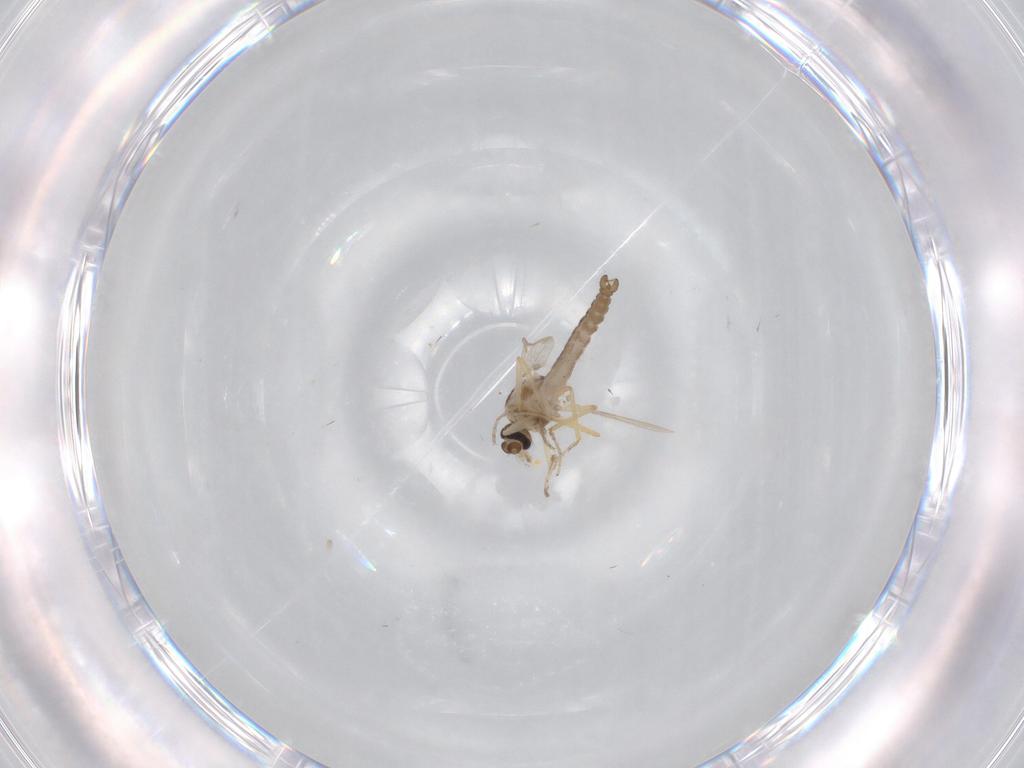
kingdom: Animalia
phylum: Arthropoda
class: Insecta
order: Diptera
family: Ceratopogonidae
